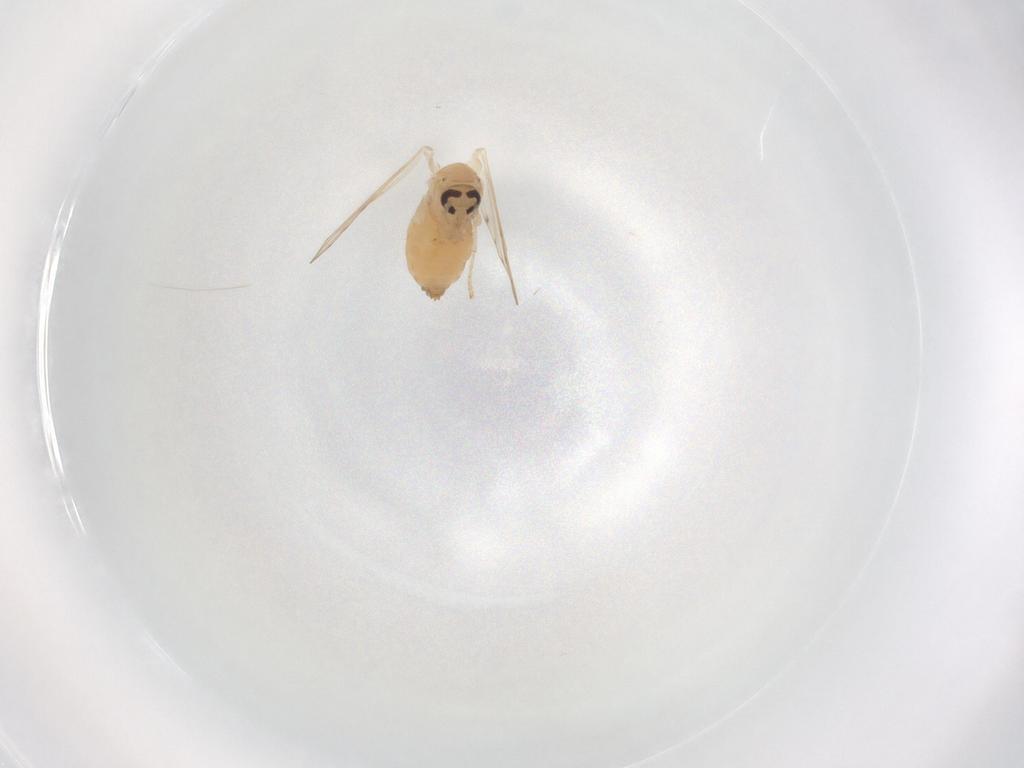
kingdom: Animalia
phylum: Arthropoda
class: Insecta
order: Diptera
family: Psychodidae
